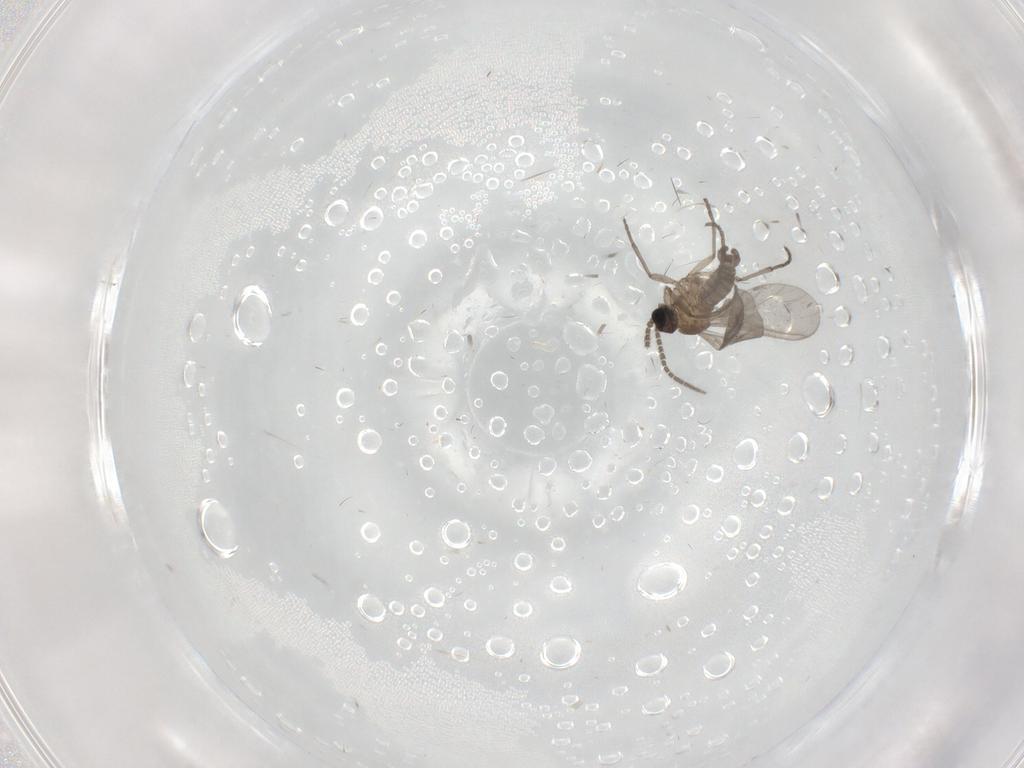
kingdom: Animalia
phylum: Arthropoda
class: Insecta
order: Diptera
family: Sciaridae
